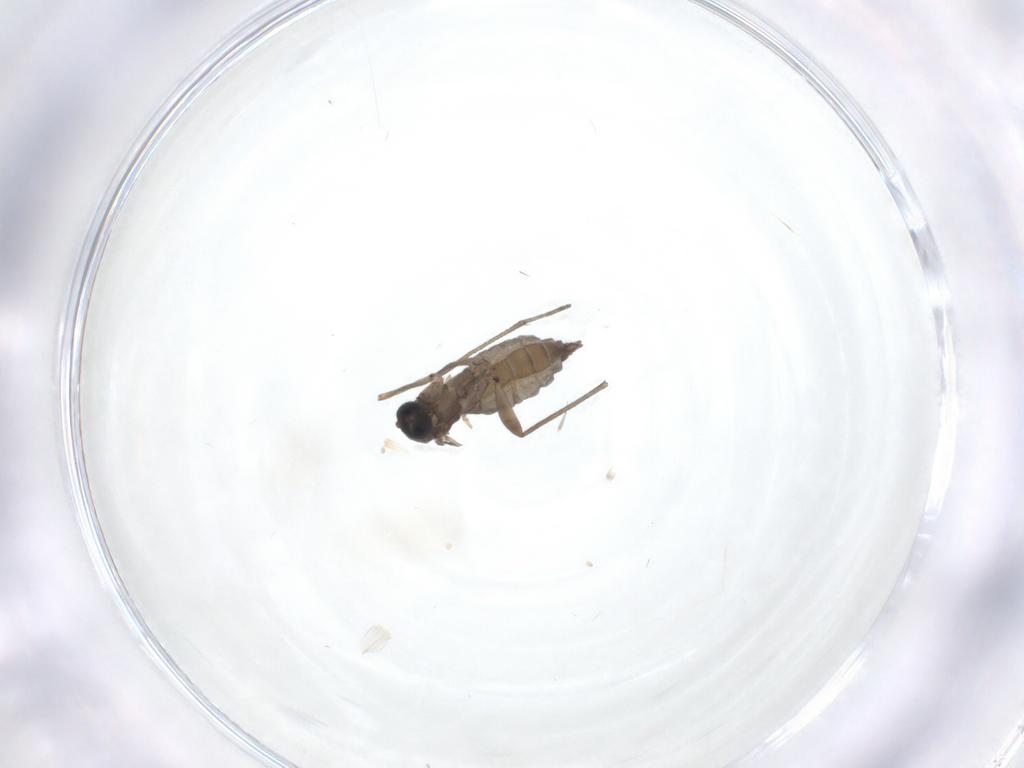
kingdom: Animalia
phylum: Arthropoda
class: Insecta
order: Diptera
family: Sciaridae
